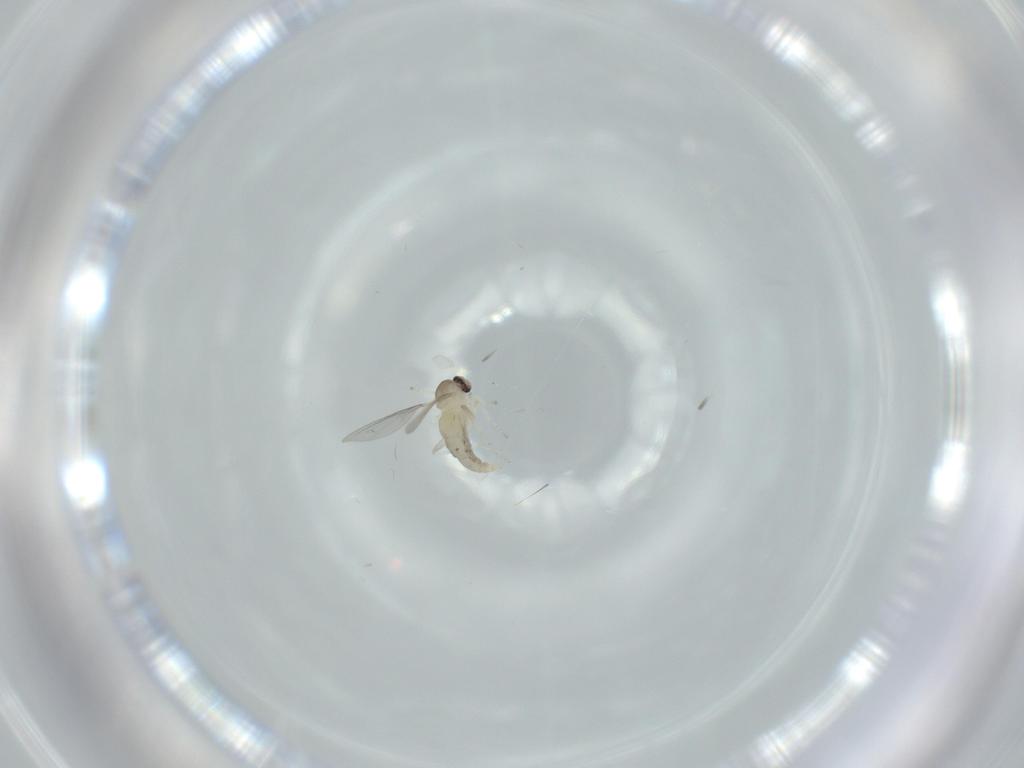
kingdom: Animalia
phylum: Arthropoda
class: Insecta
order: Diptera
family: Cecidomyiidae
